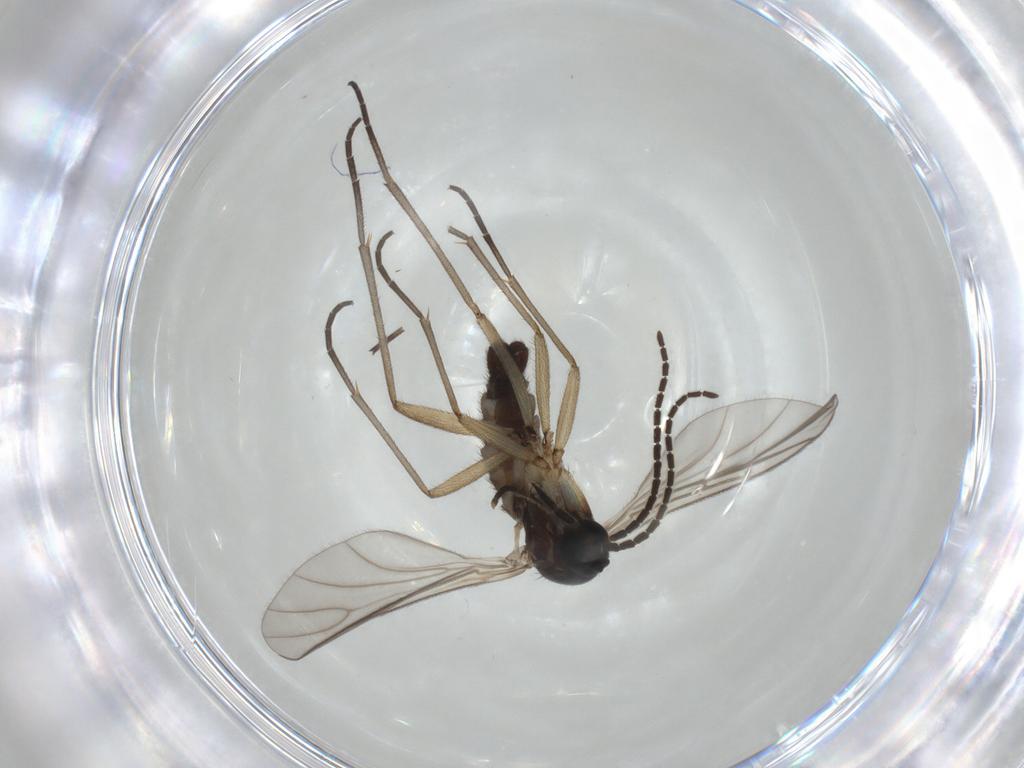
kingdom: Animalia
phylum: Arthropoda
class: Insecta
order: Diptera
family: Sciaridae
